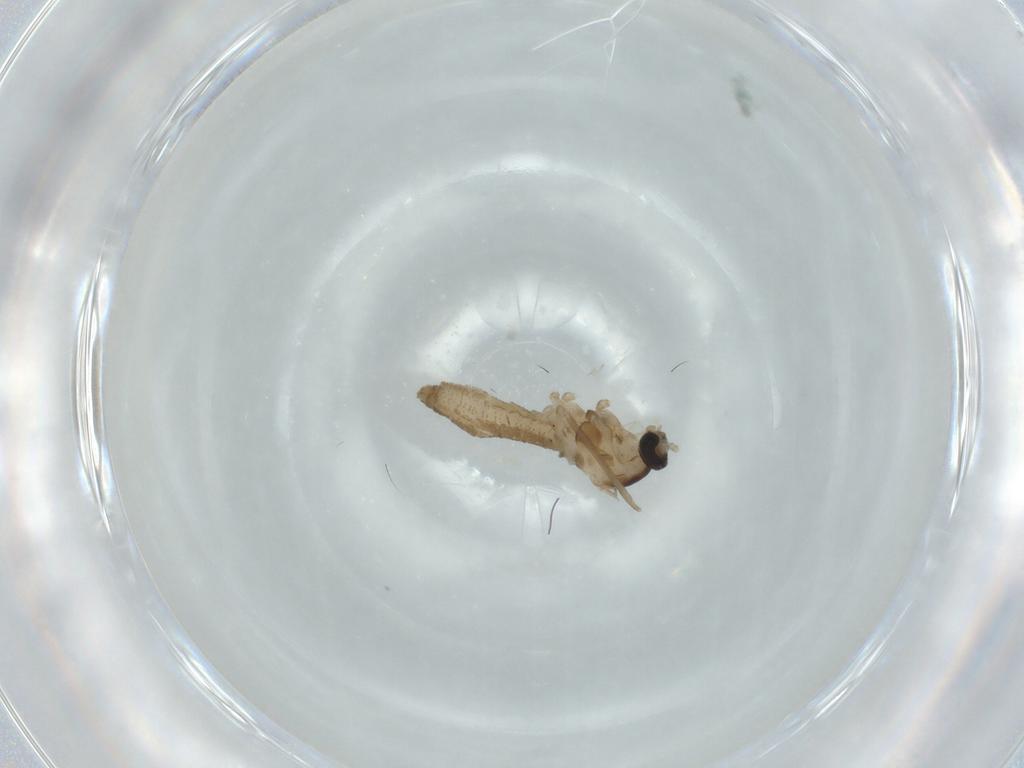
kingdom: Animalia
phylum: Arthropoda
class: Insecta
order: Diptera
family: Cecidomyiidae
